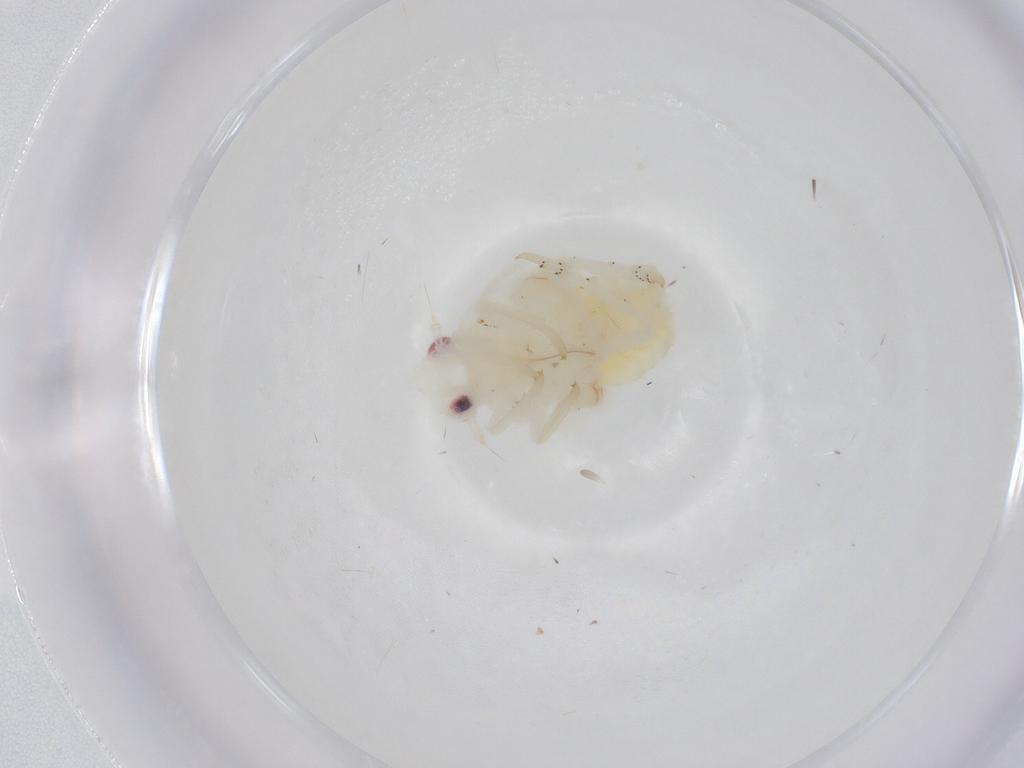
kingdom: Animalia
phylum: Arthropoda
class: Insecta
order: Hemiptera
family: Fulgoroidea_incertae_sedis
